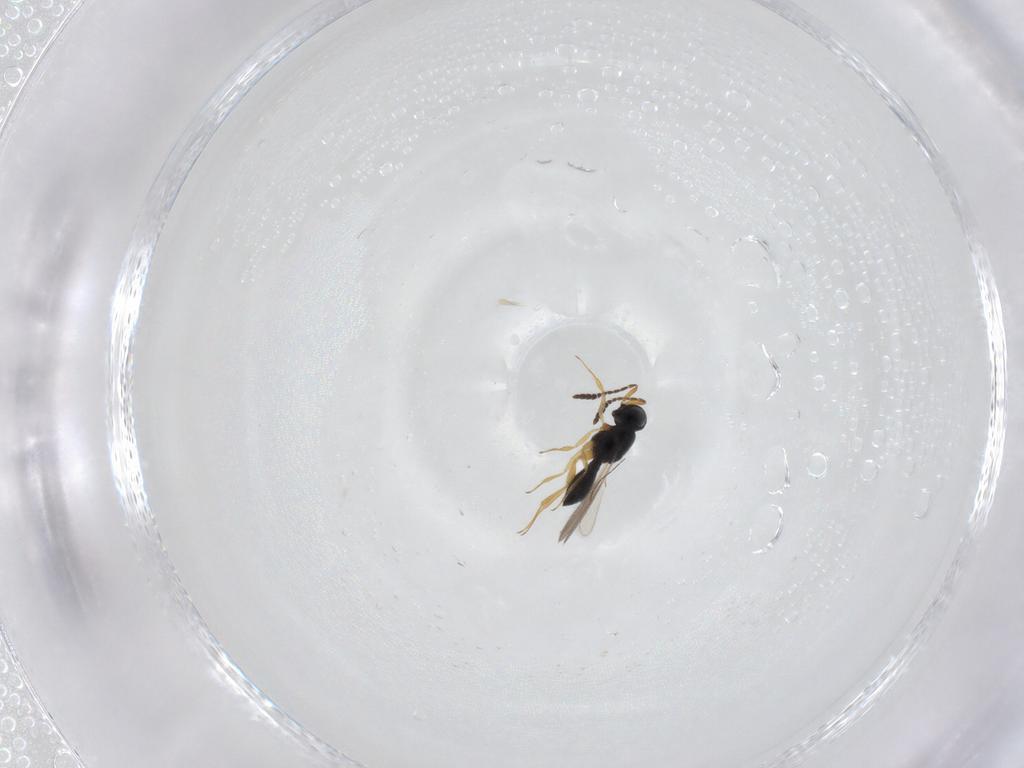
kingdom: Animalia
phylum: Arthropoda
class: Insecta
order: Hymenoptera
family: Scelionidae
